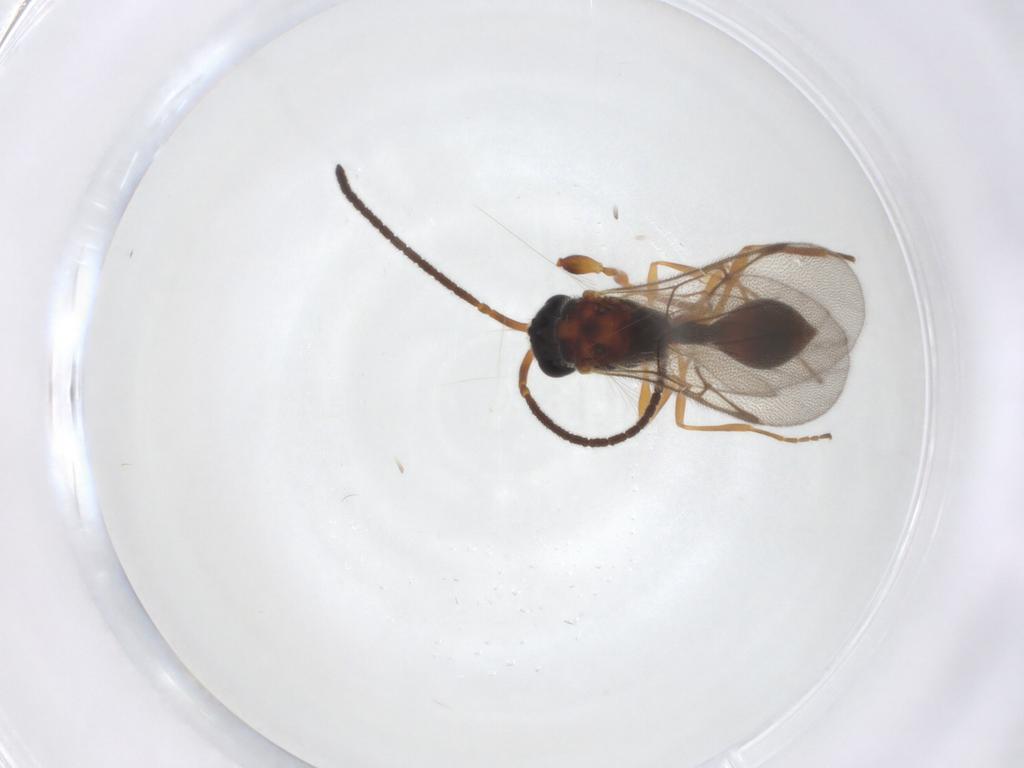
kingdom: Animalia
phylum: Arthropoda
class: Insecta
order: Hymenoptera
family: Diapriidae
